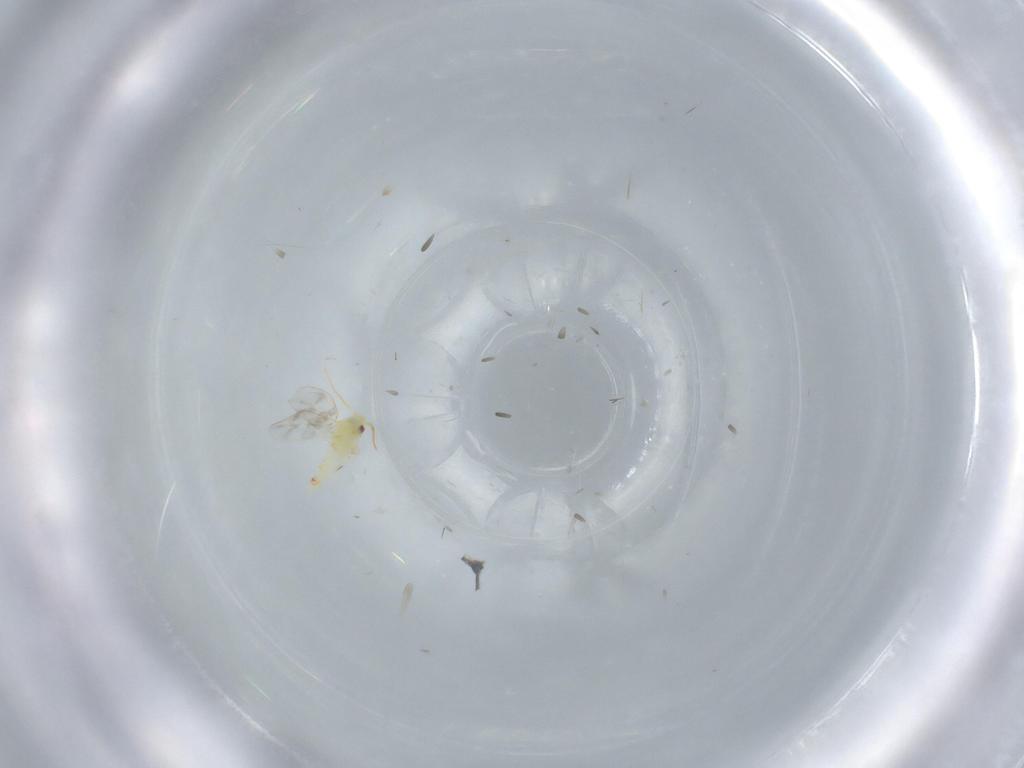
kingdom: Animalia
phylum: Arthropoda
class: Insecta
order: Hemiptera
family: Aleyrodidae
